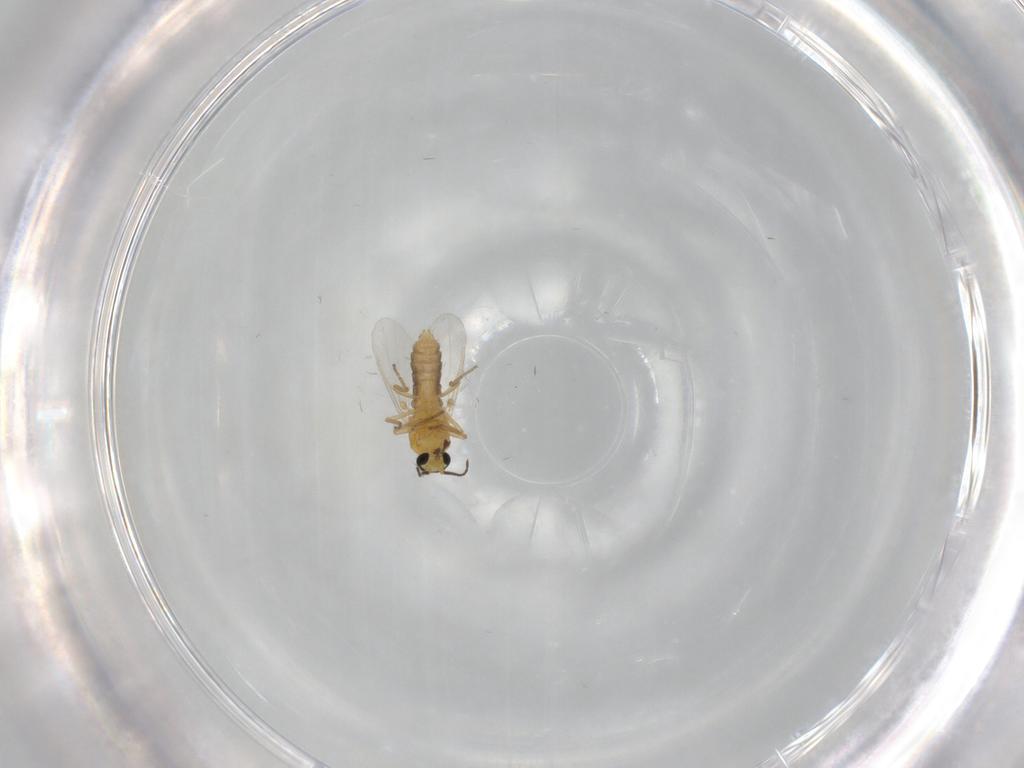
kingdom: Animalia
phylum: Arthropoda
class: Insecta
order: Diptera
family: Ceratopogonidae
